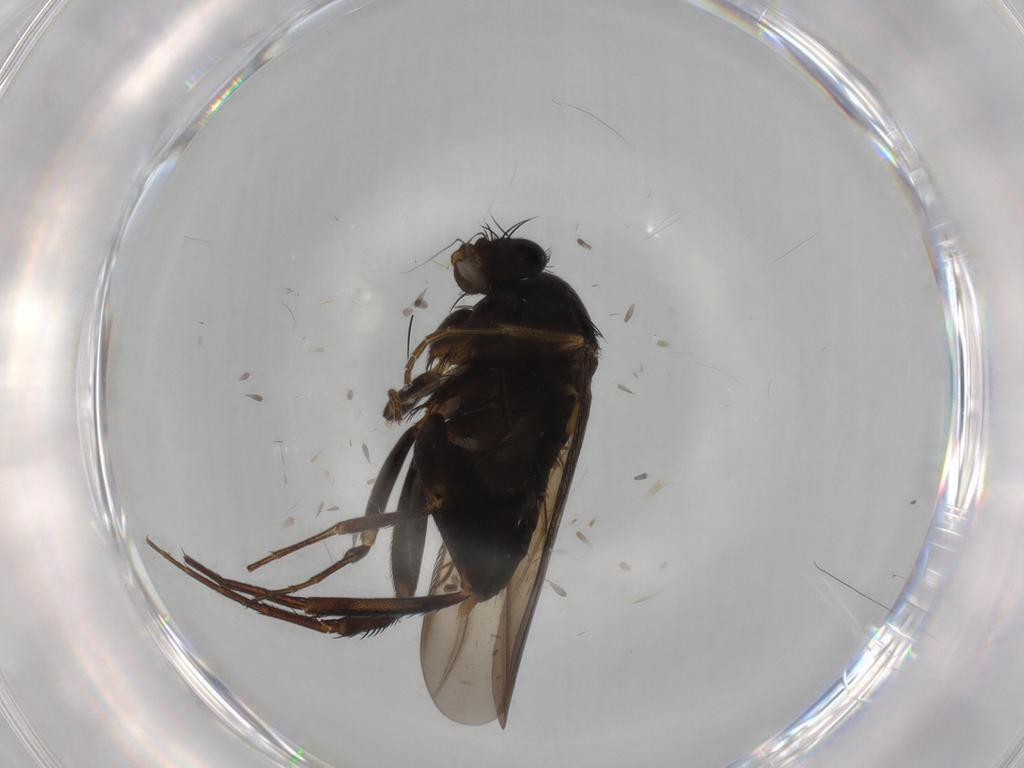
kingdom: Animalia
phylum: Arthropoda
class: Insecta
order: Diptera
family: Phoridae
